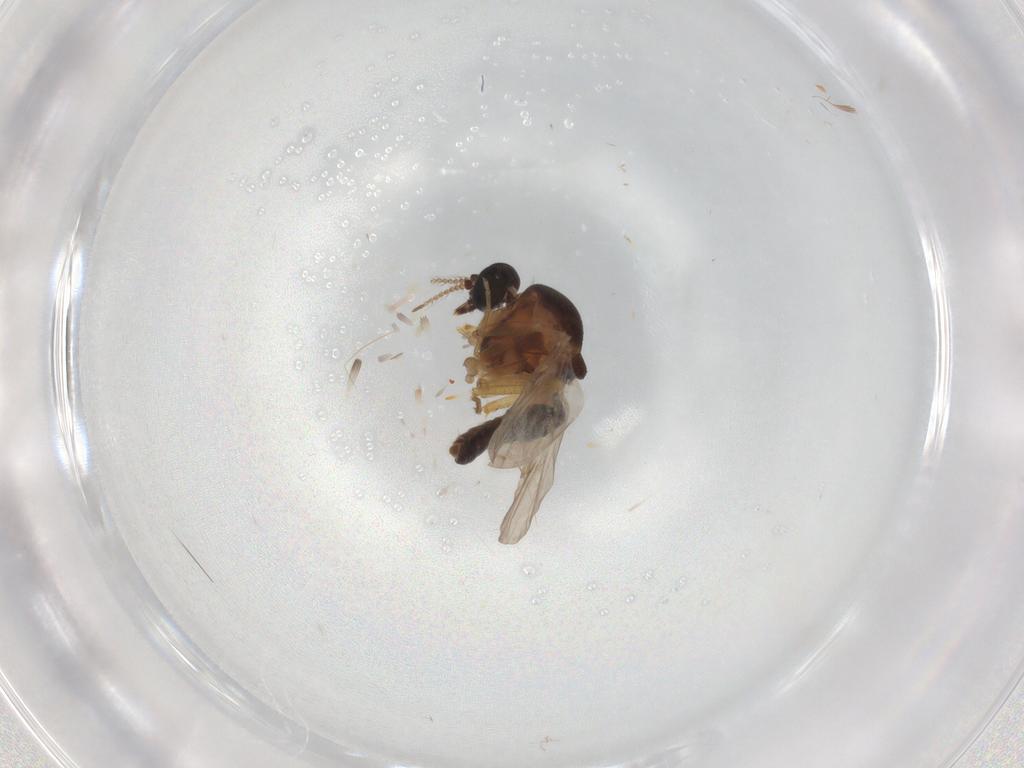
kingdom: Animalia
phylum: Arthropoda
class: Insecta
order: Diptera
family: Ceratopogonidae
